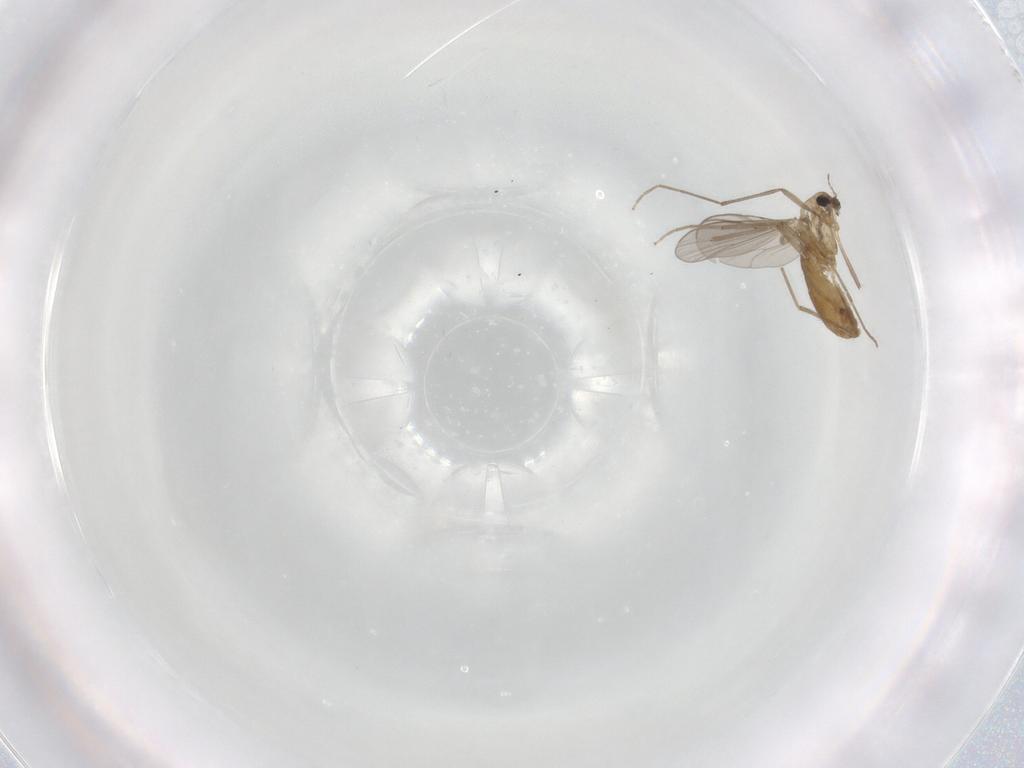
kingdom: Animalia
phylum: Arthropoda
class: Insecta
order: Diptera
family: Chironomidae
